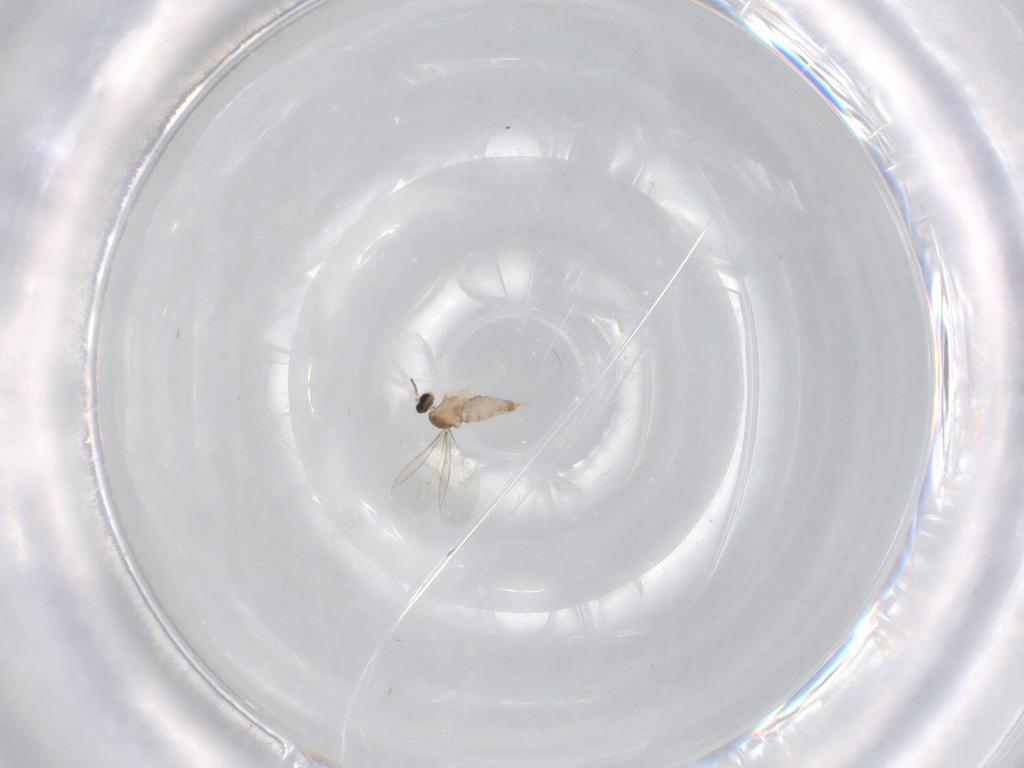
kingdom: Animalia
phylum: Arthropoda
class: Insecta
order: Diptera
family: Cecidomyiidae
